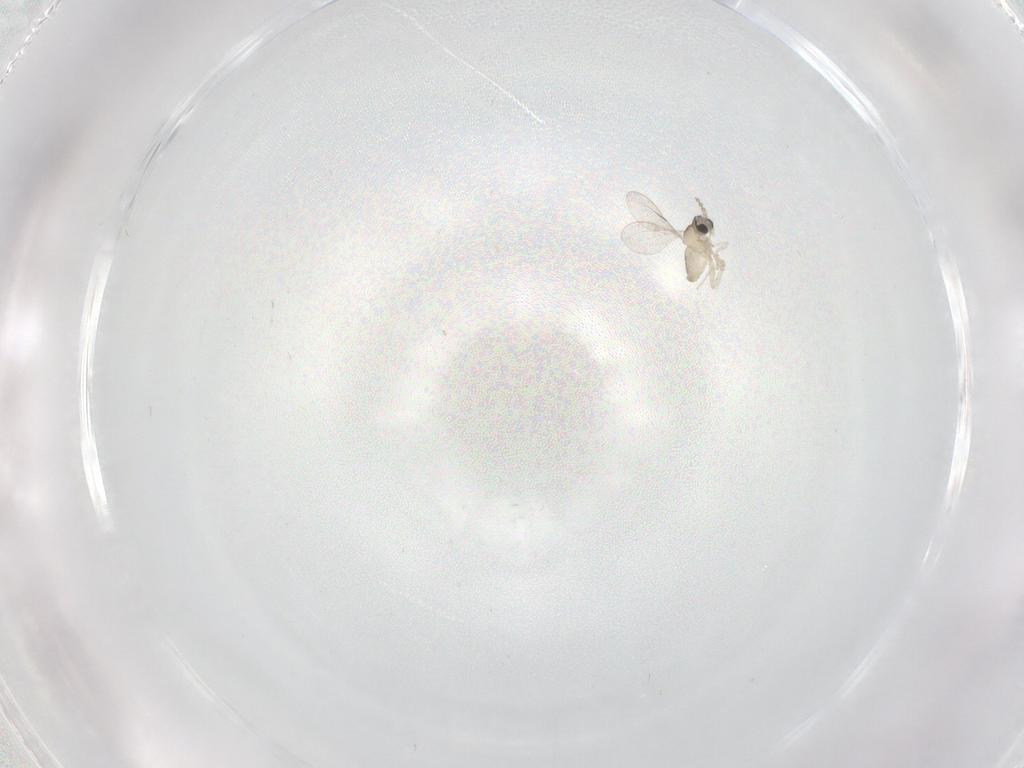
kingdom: Animalia
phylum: Arthropoda
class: Insecta
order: Diptera
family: Cecidomyiidae
